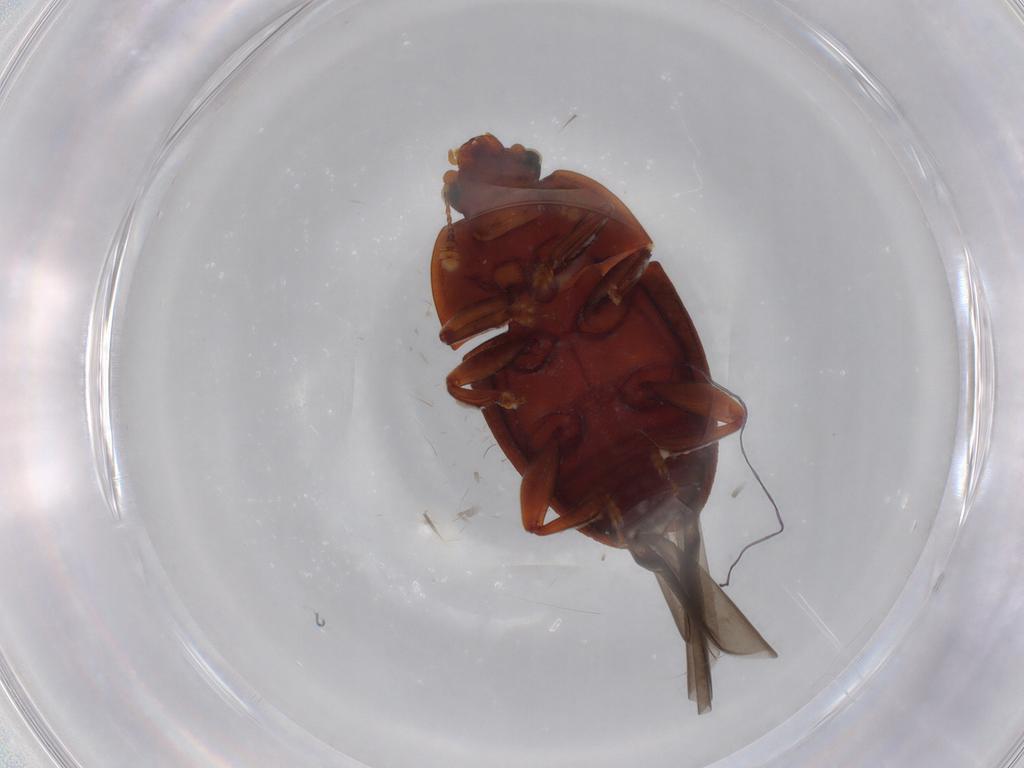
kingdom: Animalia
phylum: Arthropoda
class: Insecta
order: Coleoptera
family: Nitidulidae
